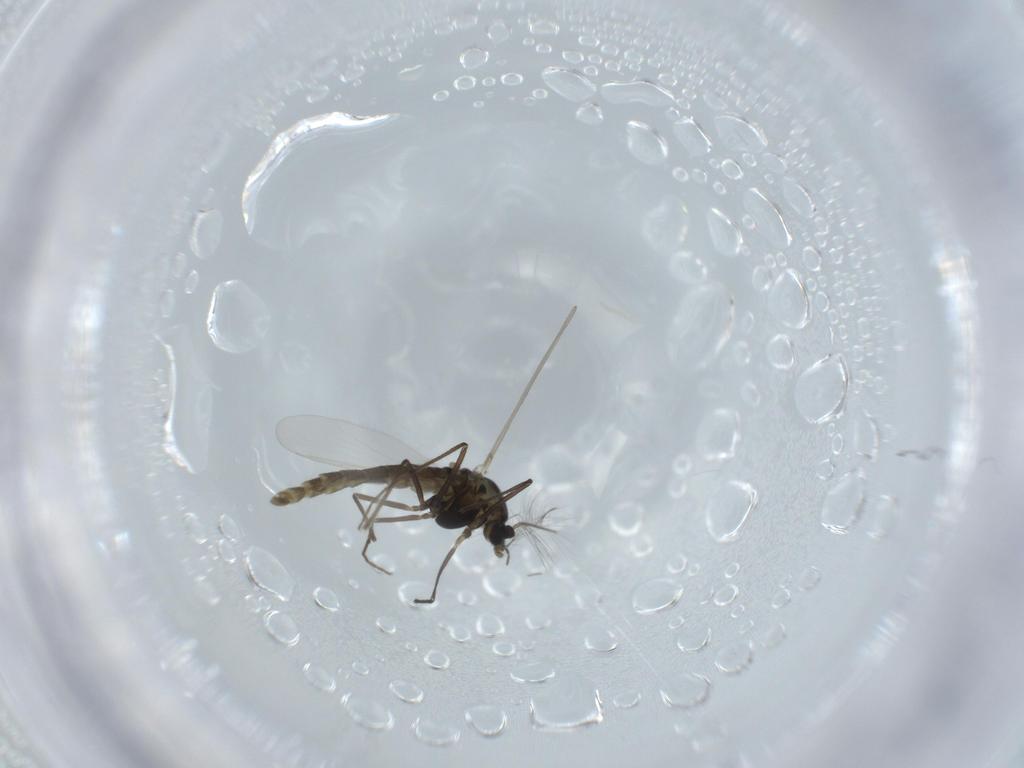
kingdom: Animalia
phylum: Arthropoda
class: Insecta
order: Diptera
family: Chironomidae
